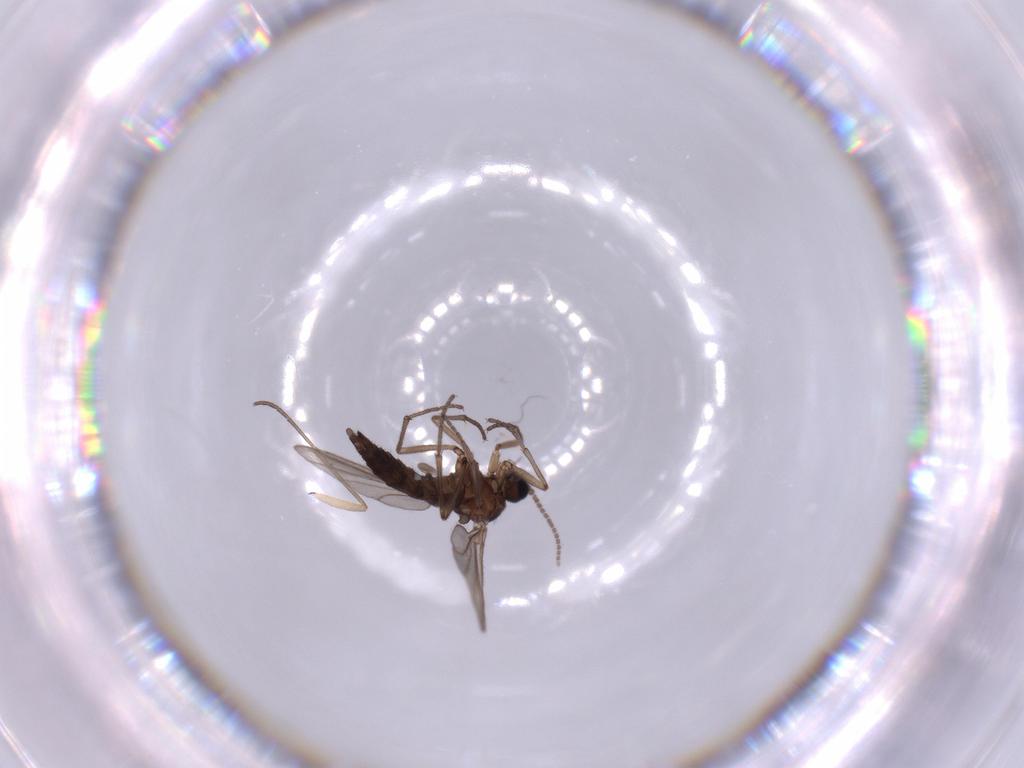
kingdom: Animalia
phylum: Arthropoda
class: Insecta
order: Diptera
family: Sciaridae
